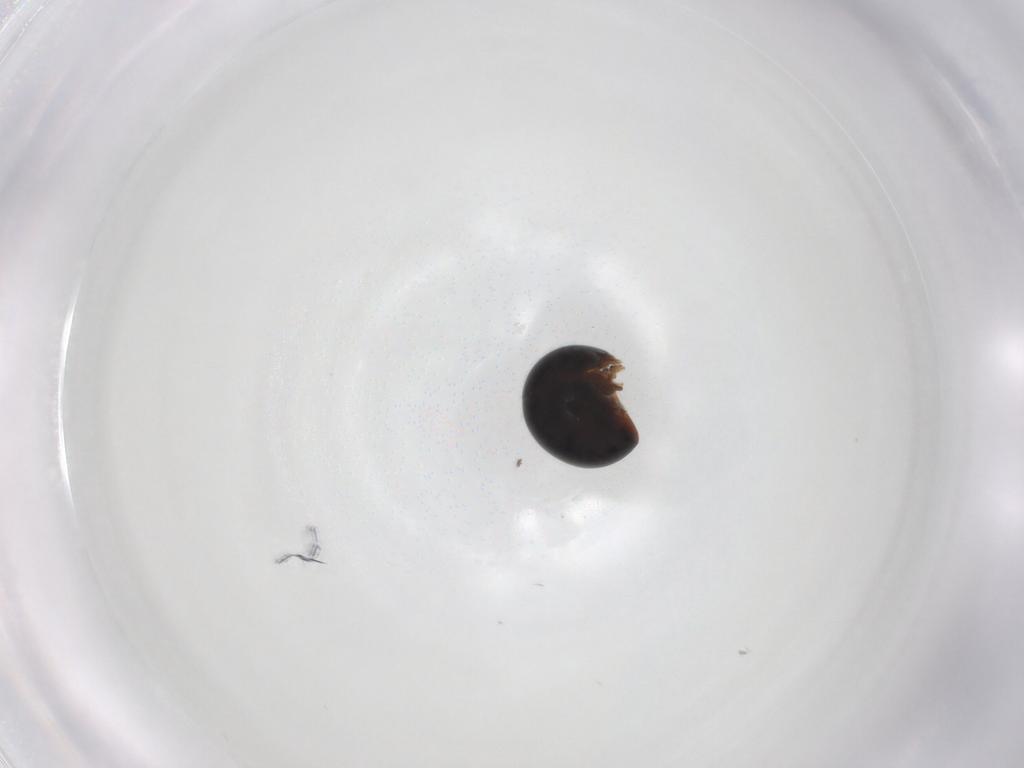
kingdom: Animalia
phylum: Arthropoda
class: Insecta
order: Coleoptera
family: Leiodidae
